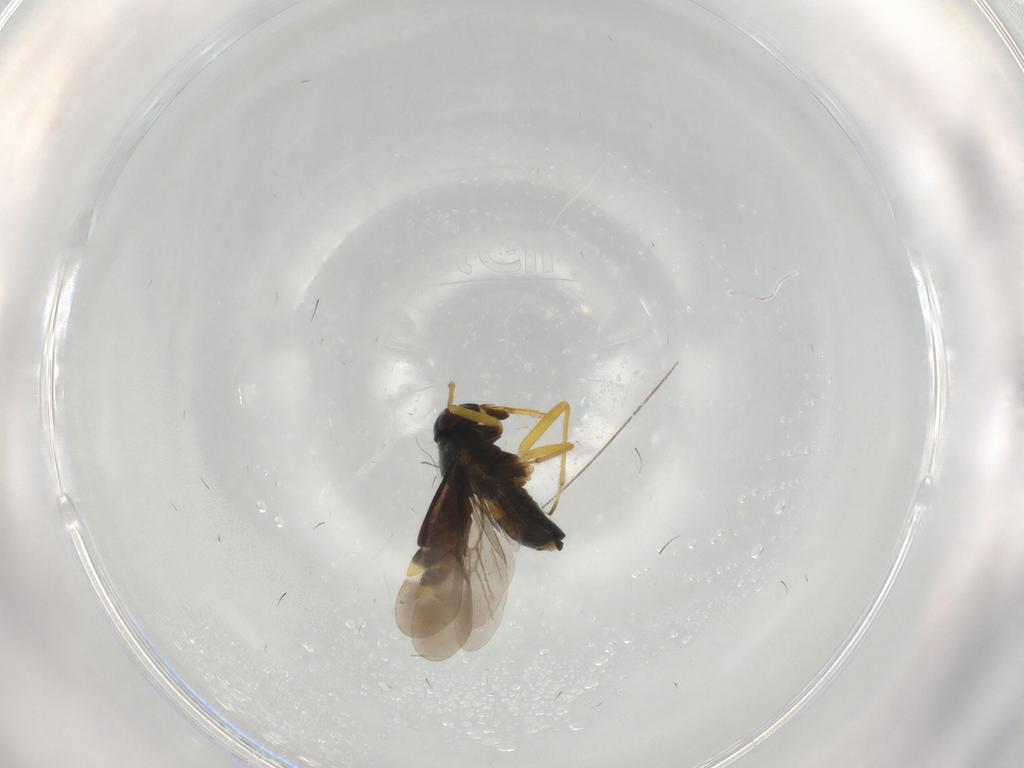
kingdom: Animalia
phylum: Arthropoda
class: Insecta
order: Hemiptera
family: Miridae
